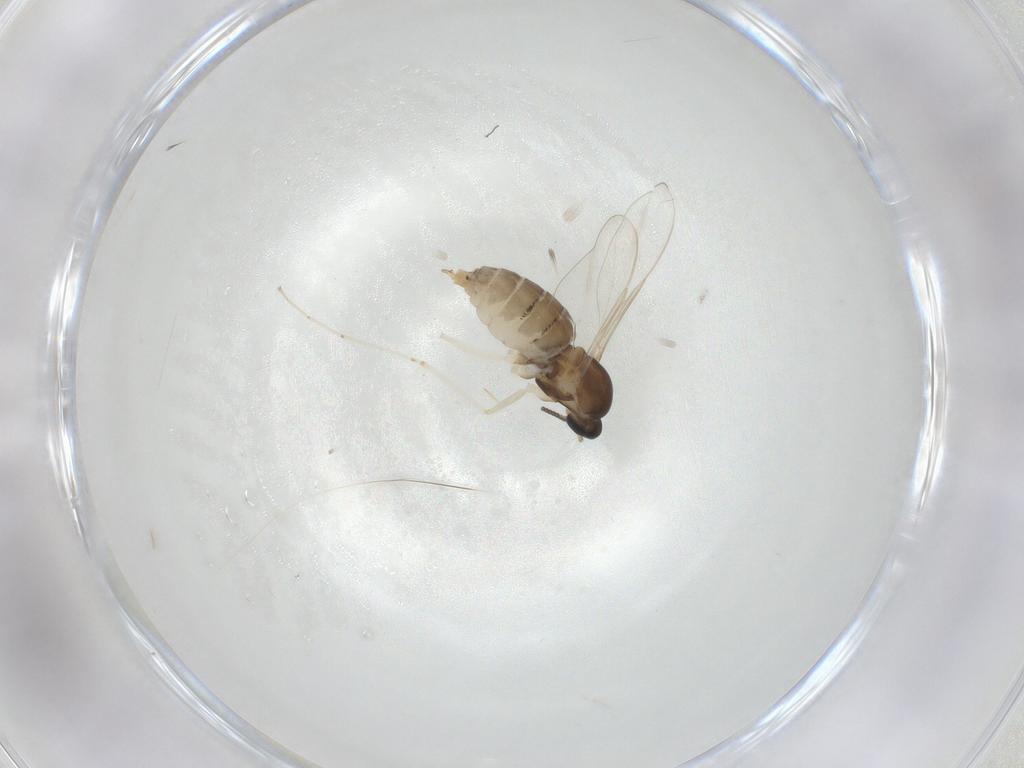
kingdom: Animalia
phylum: Arthropoda
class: Insecta
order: Diptera
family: Cecidomyiidae
